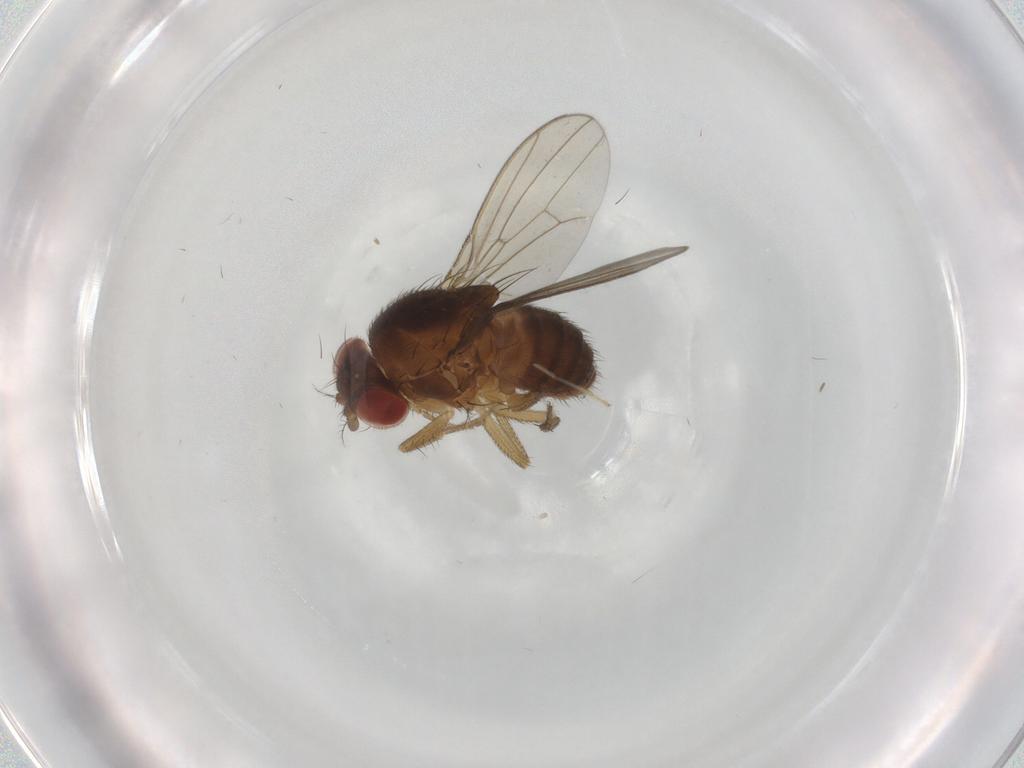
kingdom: Animalia
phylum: Arthropoda
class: Insecta
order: Diptera
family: Drosophilidae
